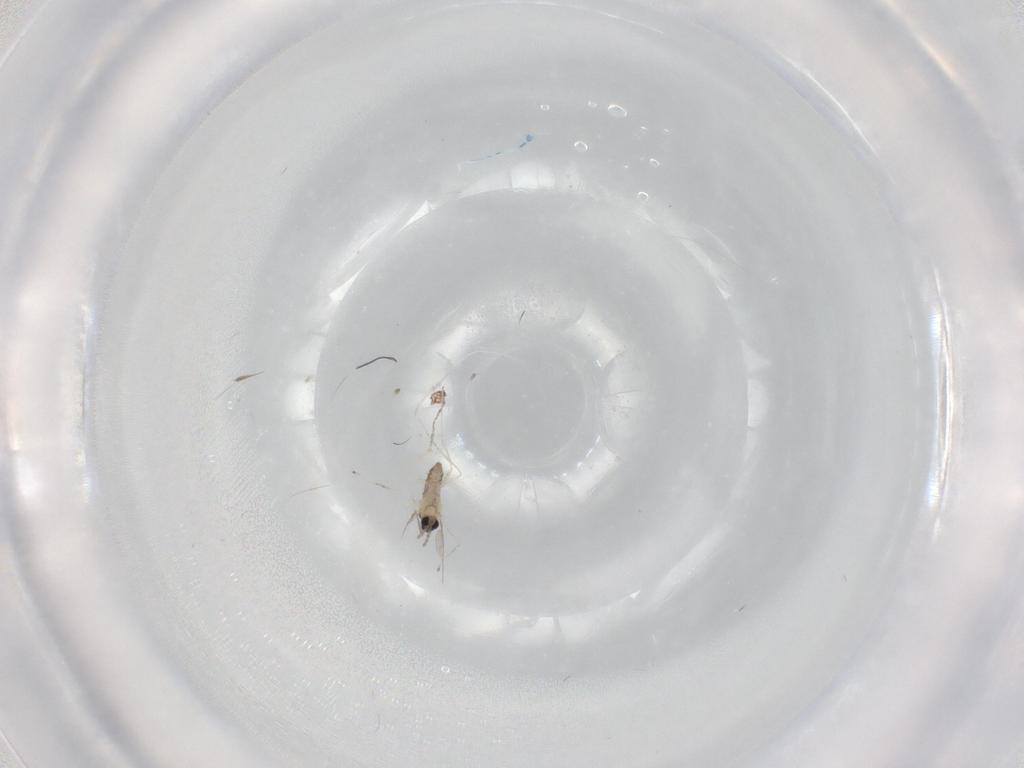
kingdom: Animalia
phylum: Arthropoda
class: Insecta
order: Diptera
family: Cecidomyiidae
